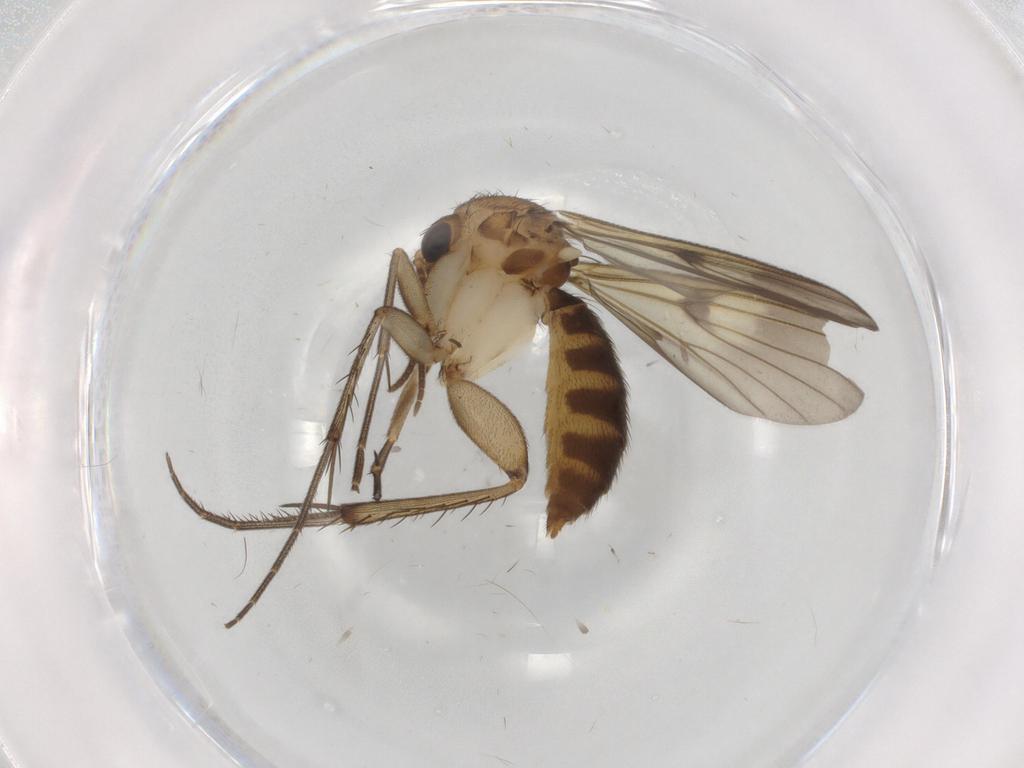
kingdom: Animalia
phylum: Arthropoda
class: Insecta
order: Diptera
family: Mycetophilidae
